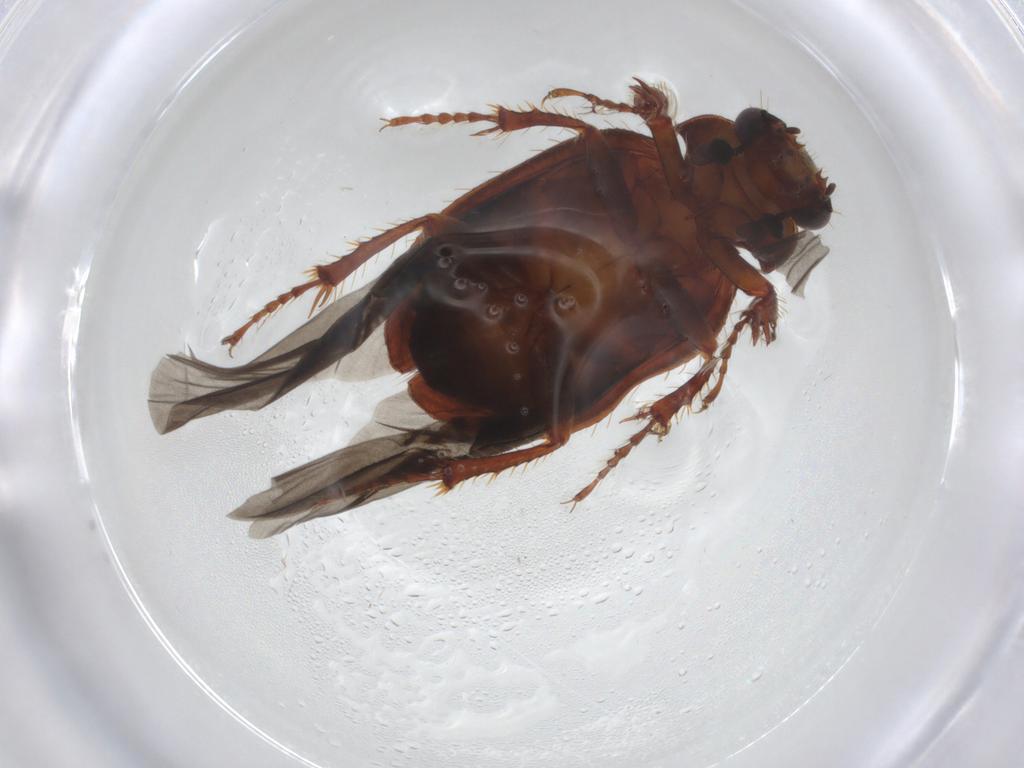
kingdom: Animalia
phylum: Arthropoda
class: Insecta
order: Coleoptera
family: Hybosoridae
